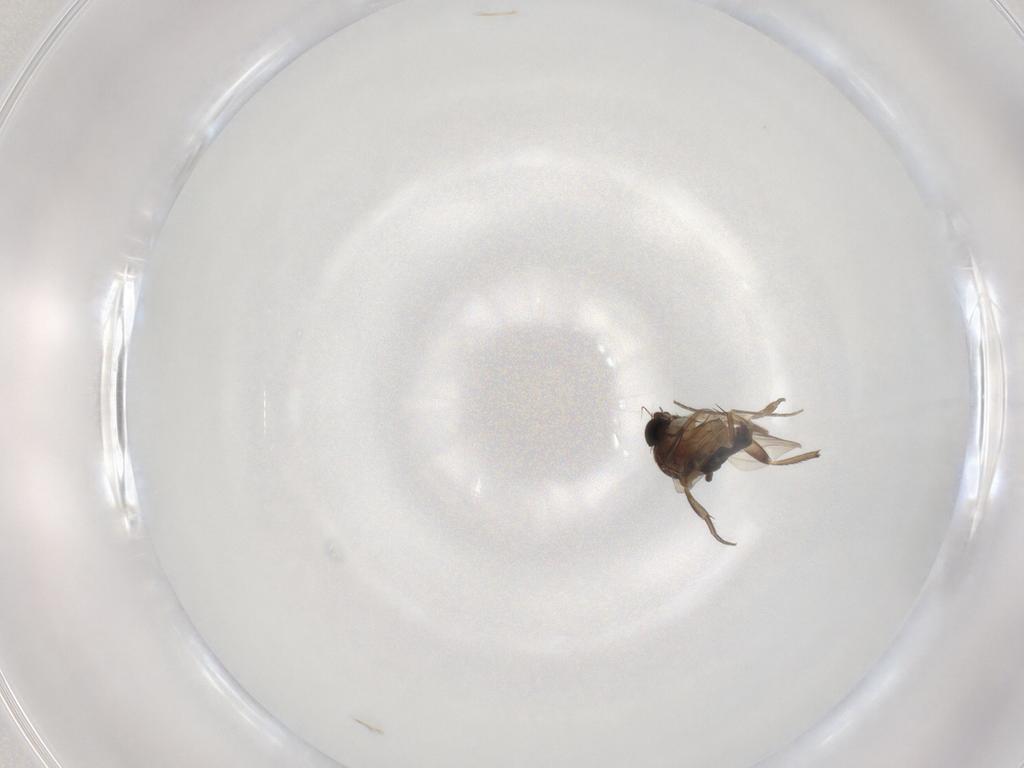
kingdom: Animalia
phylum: Arthropoda
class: Insecta
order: Diptera
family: Phoridae
